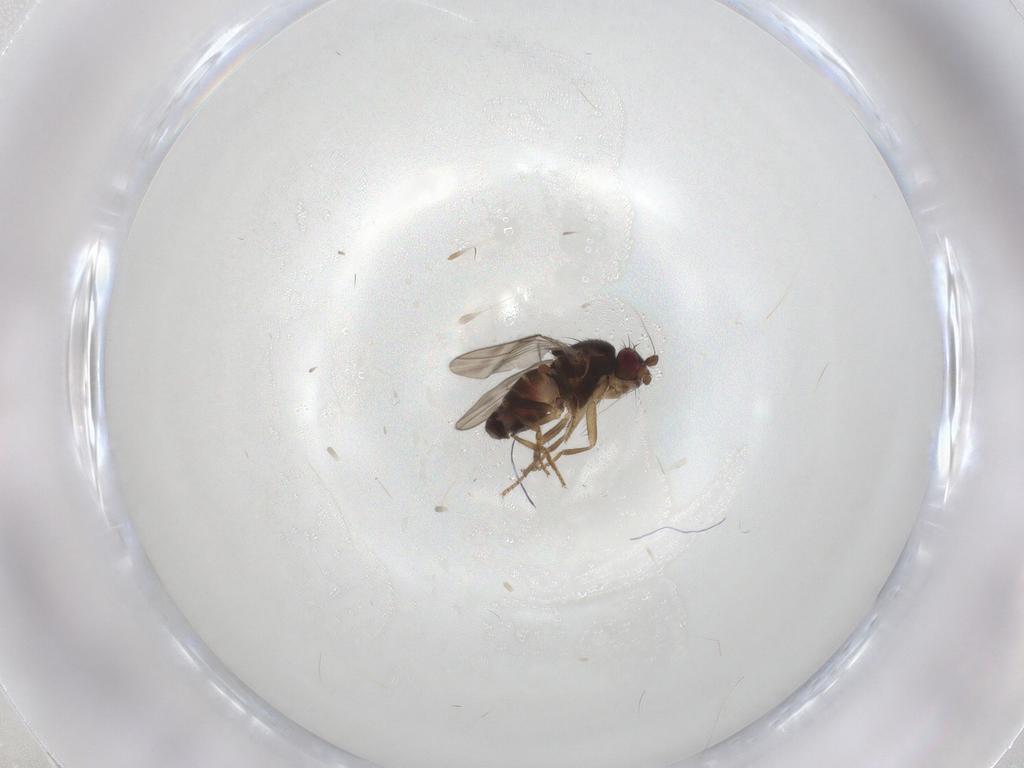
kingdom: Animalia
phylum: Arthropoda
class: Insecta
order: Diptera
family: Sphaeroceridae
